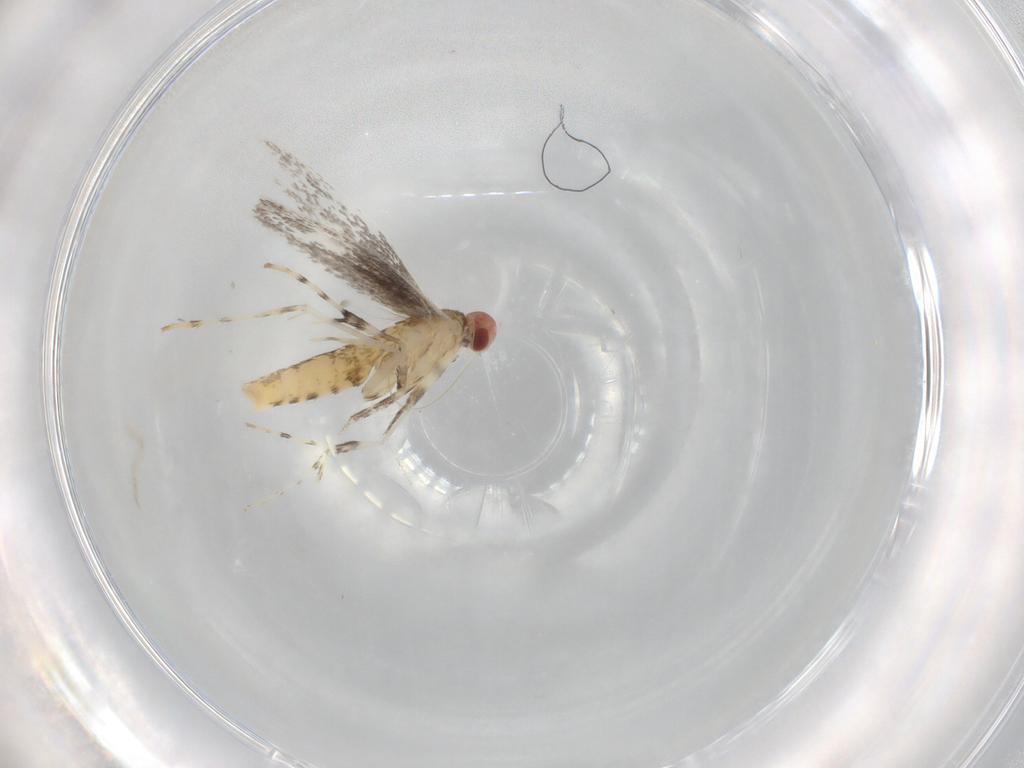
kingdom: Animalia
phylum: Arthropoda
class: Insecta
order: Lepidoptera
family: Gracillariidae
